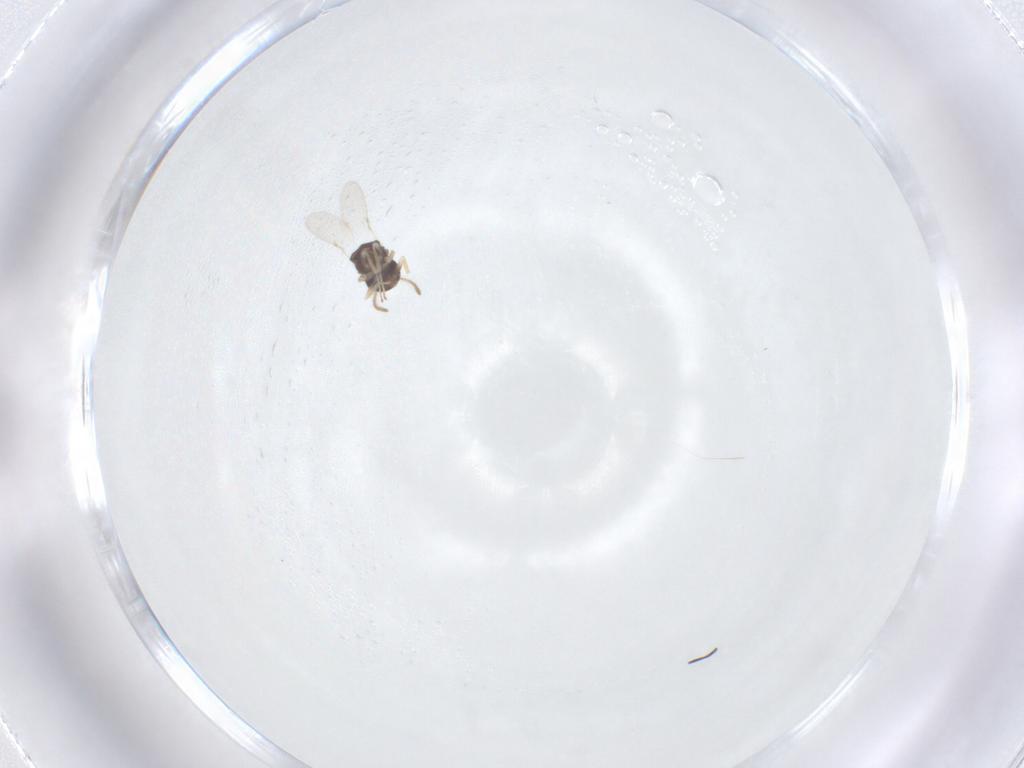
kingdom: Animalia
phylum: Arthropoda
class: Insecta
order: Hymenoptera
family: Encyrtidae
